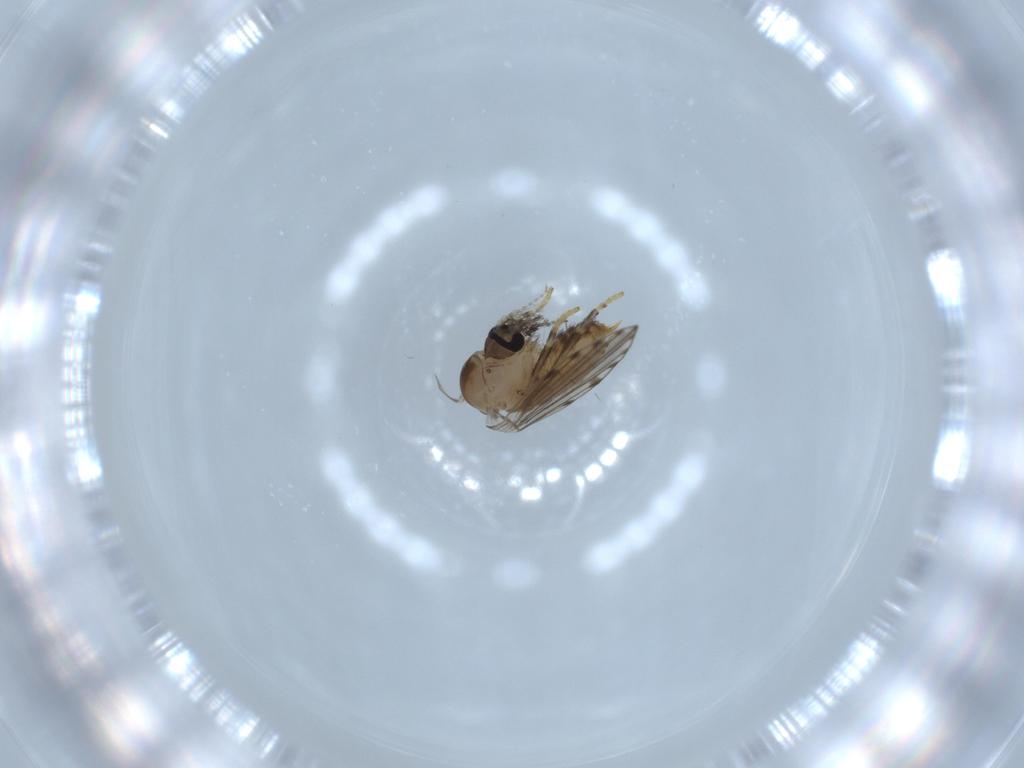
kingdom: Animalia
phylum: Arthropoda
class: Insecta
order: Diptera
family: Psychodidae
